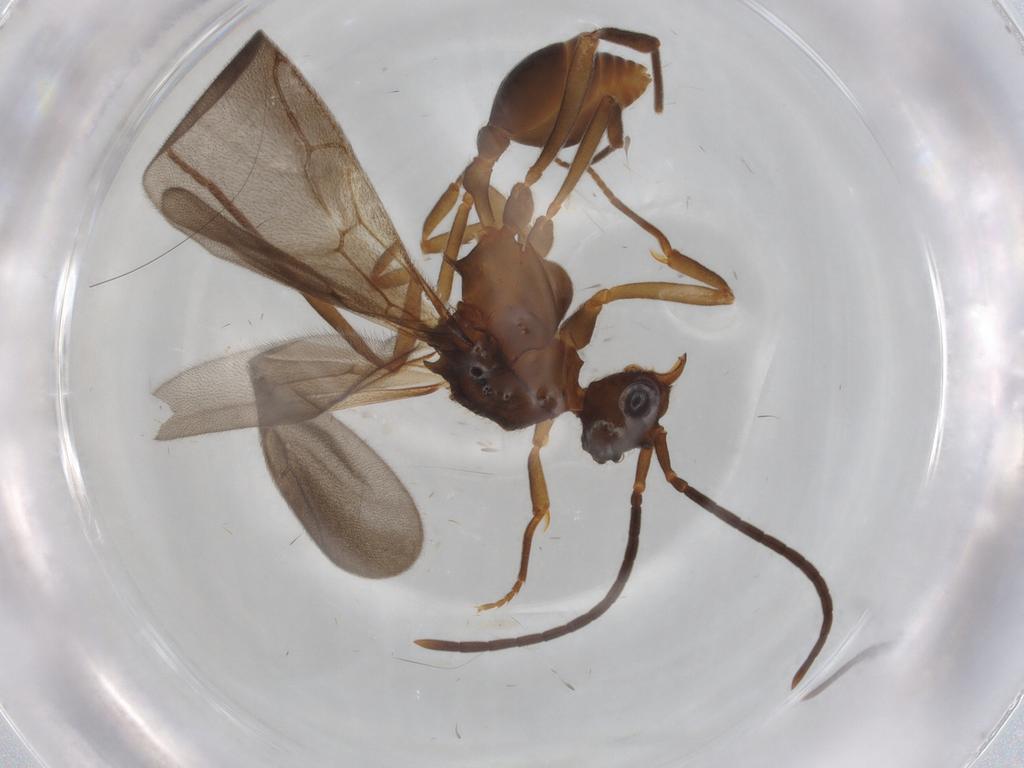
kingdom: Animalia
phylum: Arthropoda
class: Insecta
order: Hymenoptera
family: Formicidae
